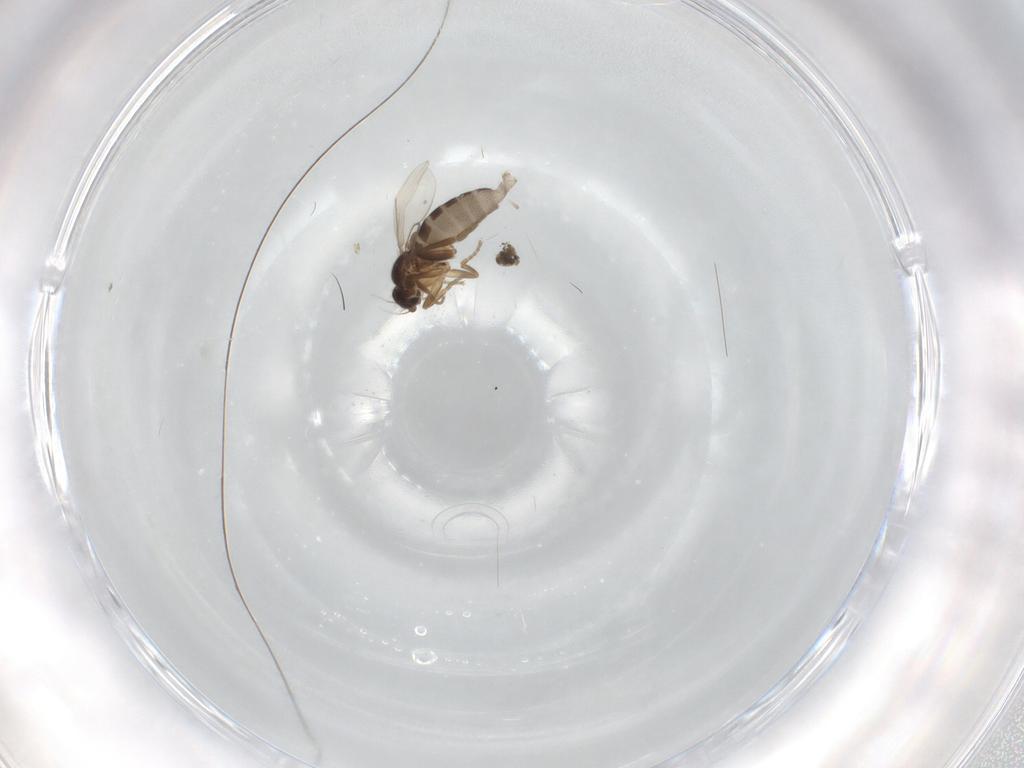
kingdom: Animalia
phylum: Arthropoda
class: Insecta
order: Diptera
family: Phoridae
